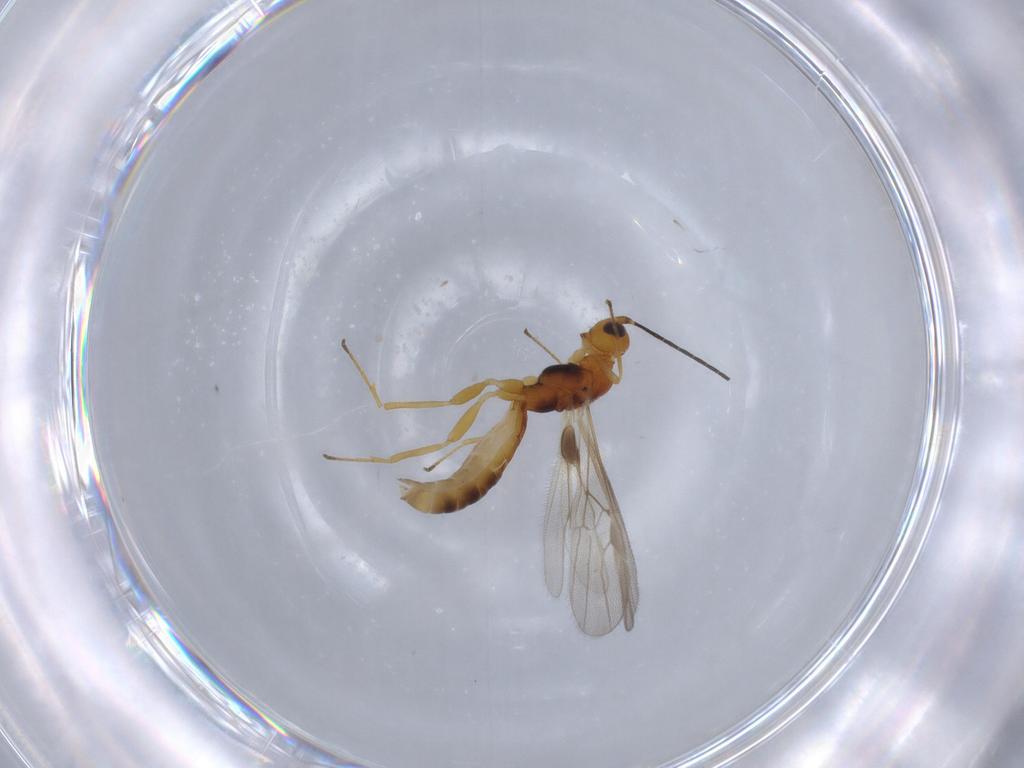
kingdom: Animalia
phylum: Arthropoda
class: Insecta
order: Hymenoptera
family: Braconidae
